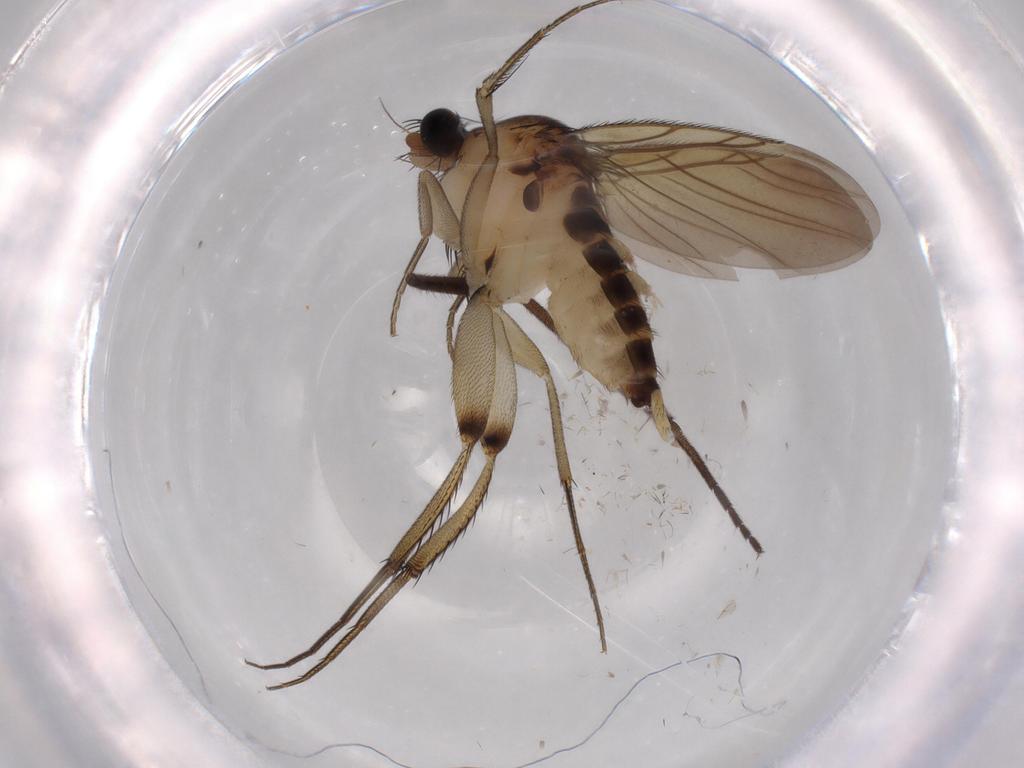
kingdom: Animalia
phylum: Arthropoda
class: Insecta
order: Diptera
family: Sciaridae
